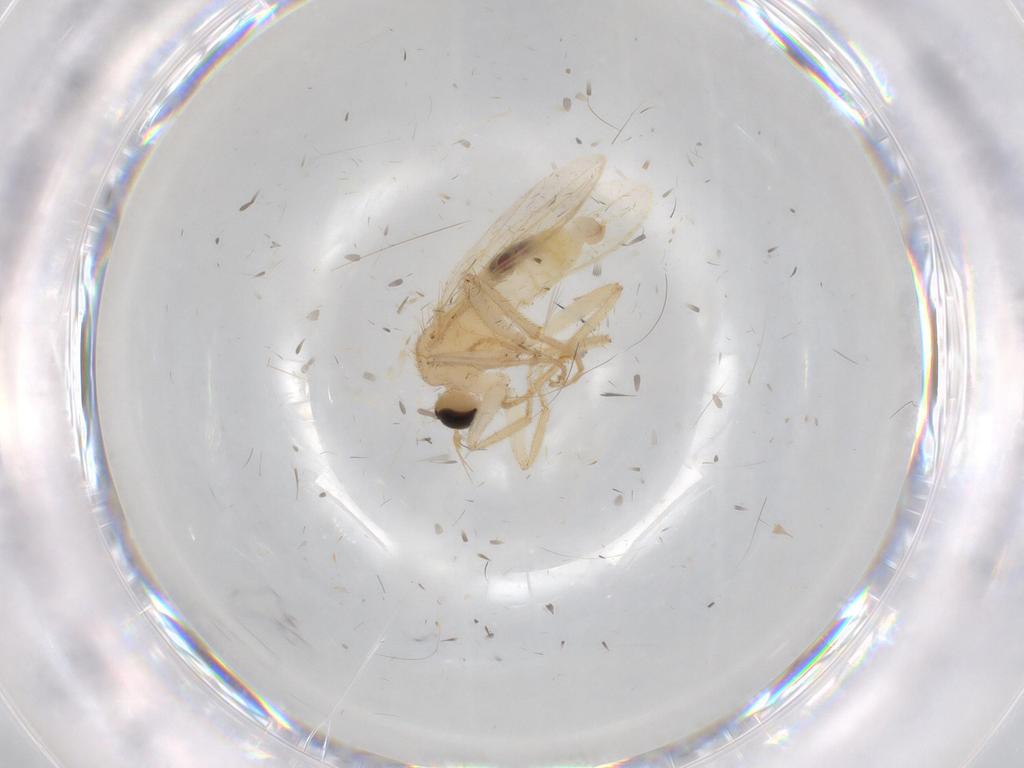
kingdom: Animalia
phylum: Arthropoda
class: Insecta
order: Diptera
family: Hybotidae
